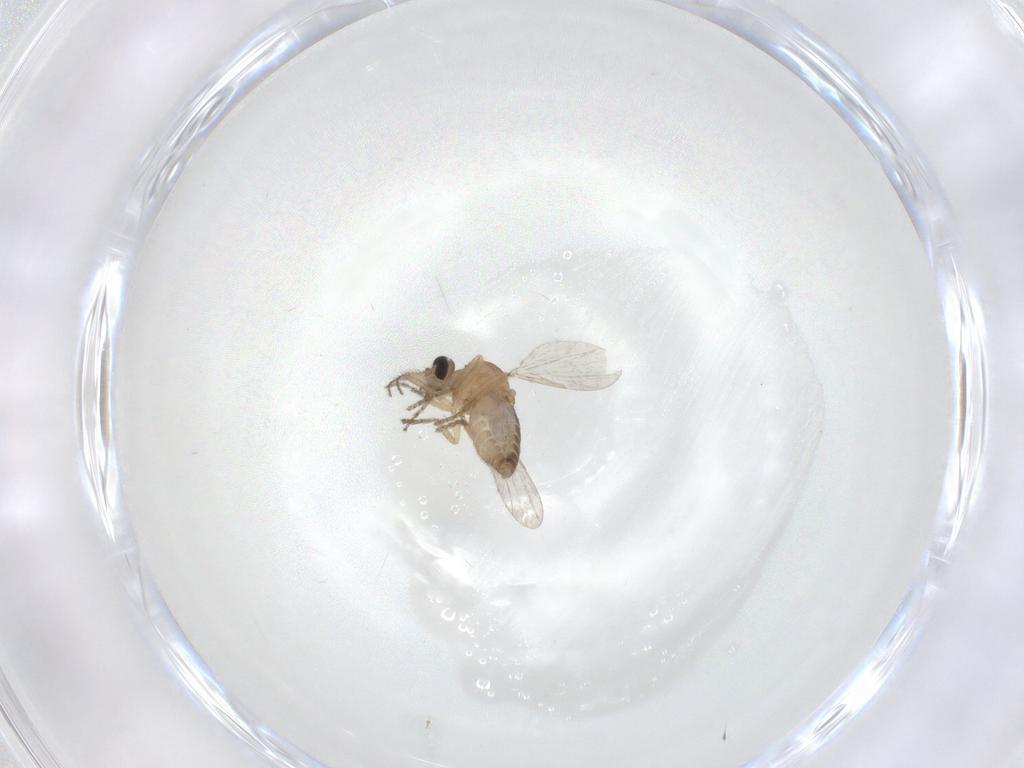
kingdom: Animalia
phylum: Arthropoda
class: Insecta
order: Diptera
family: Ceratopogonidae
